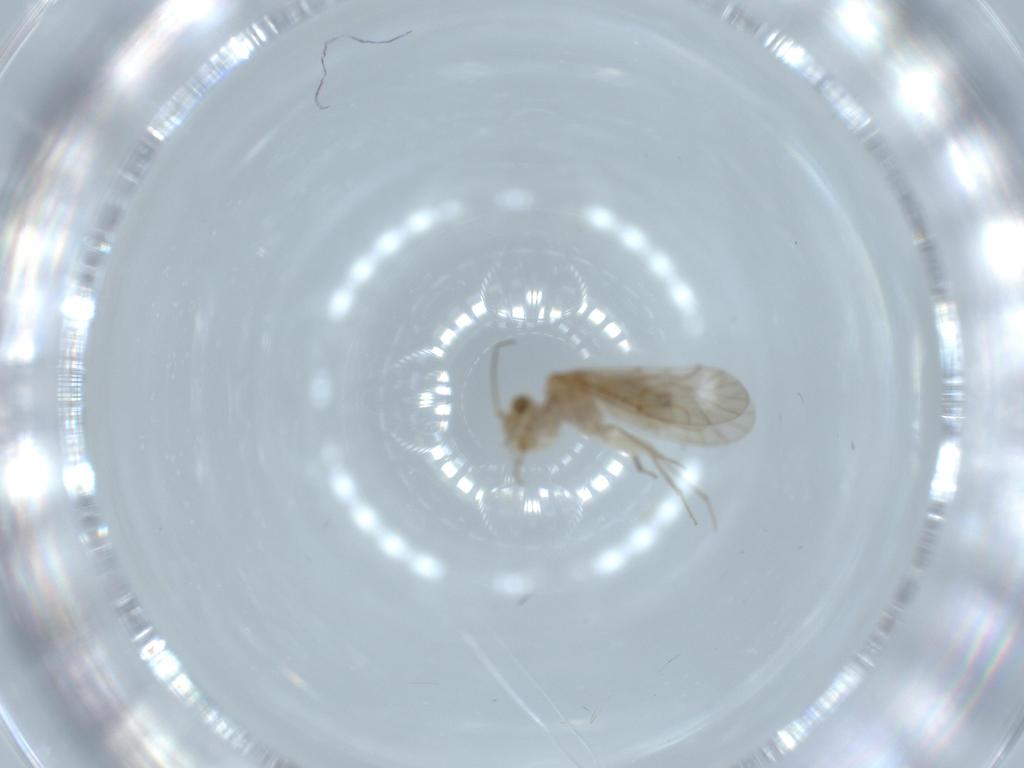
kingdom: Animalia
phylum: Arthropoda
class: Insecta
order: Psocodea
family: Lachesillidae
